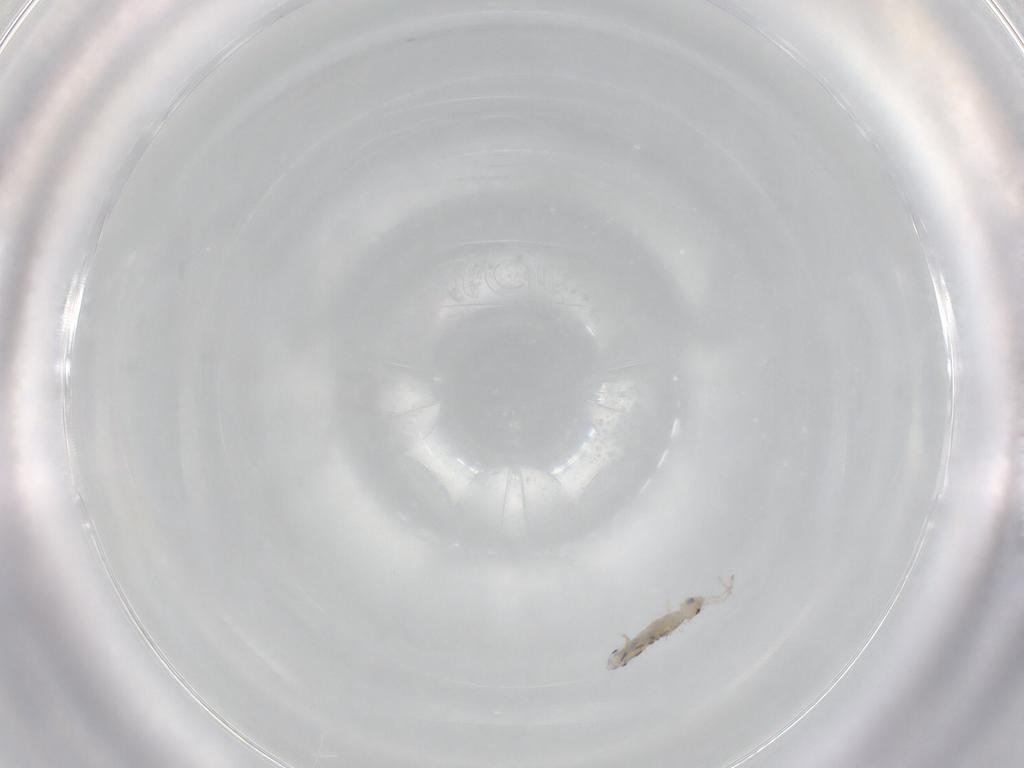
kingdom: Animalia
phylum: Arthropoda
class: Collembola
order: Entomobryomorpha
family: Entomobryidae
